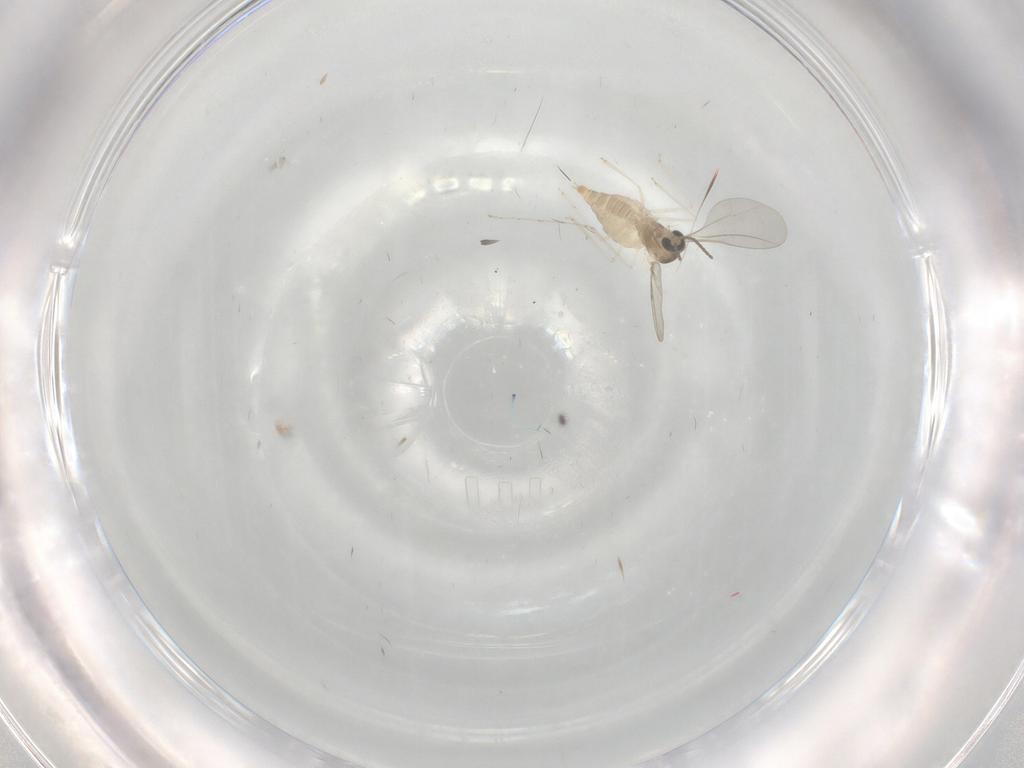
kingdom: Animalia
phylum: Arthropoda
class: Insecta
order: Diptera
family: Cecidomyiidae
